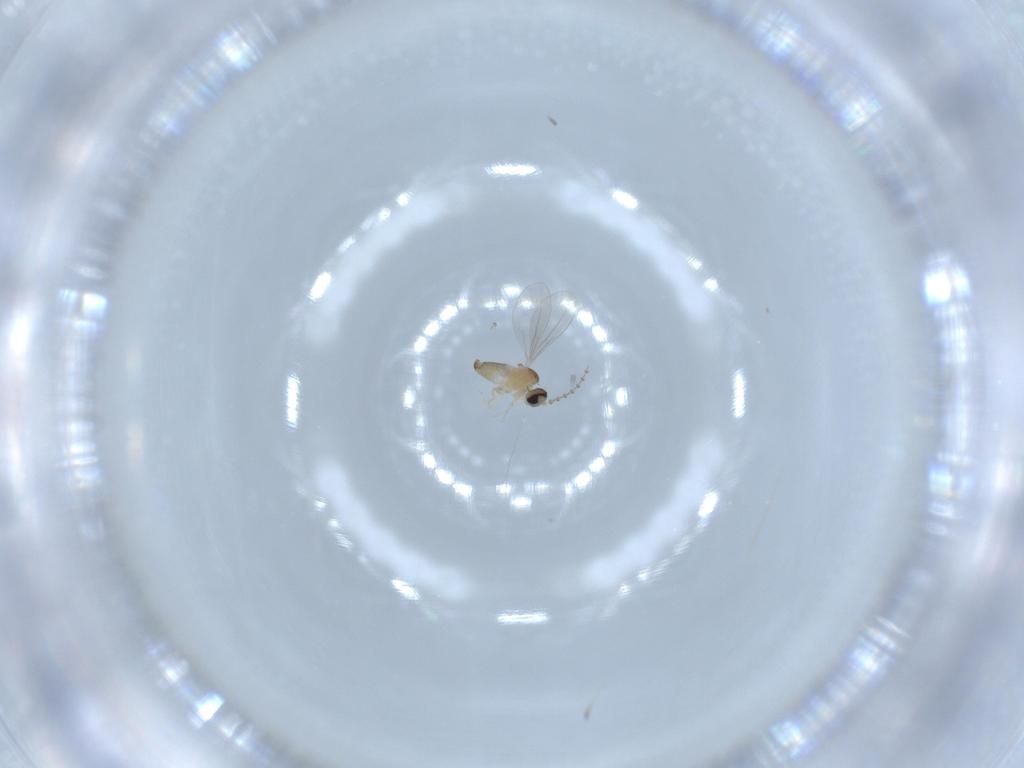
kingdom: Animalia
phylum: Arthropoda
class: Insecta
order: Diptera
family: Cecidomyiidae
